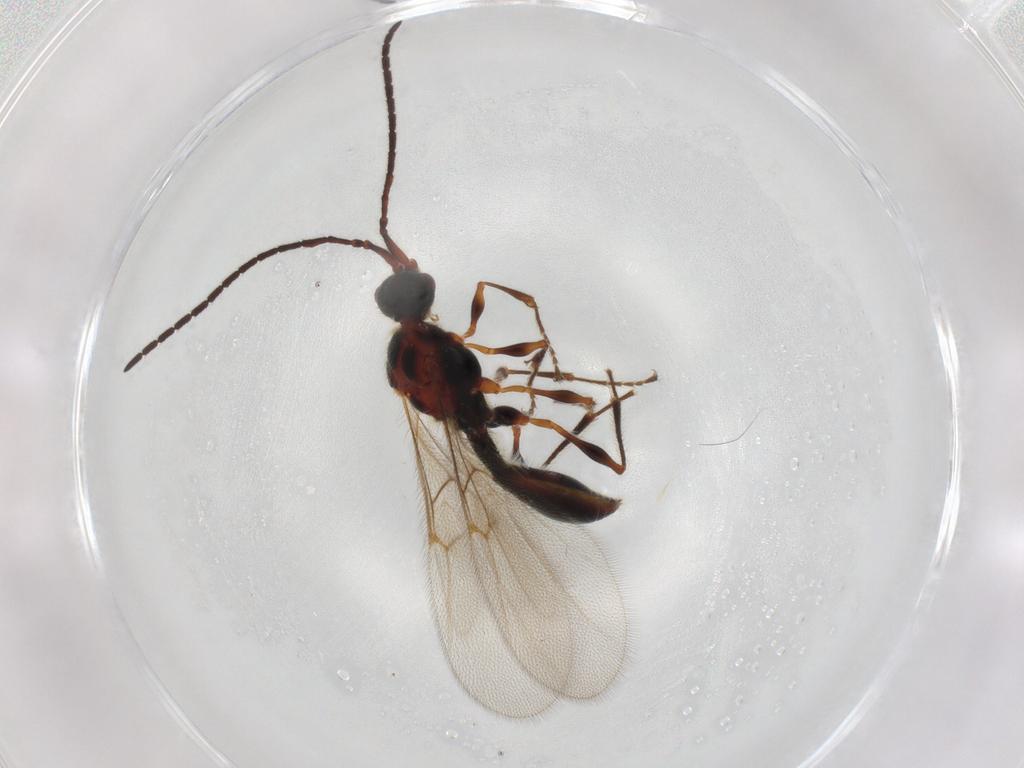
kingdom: Animalia
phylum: Arthropoda
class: Insecta
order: Hymenoptera
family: Diapriidae
